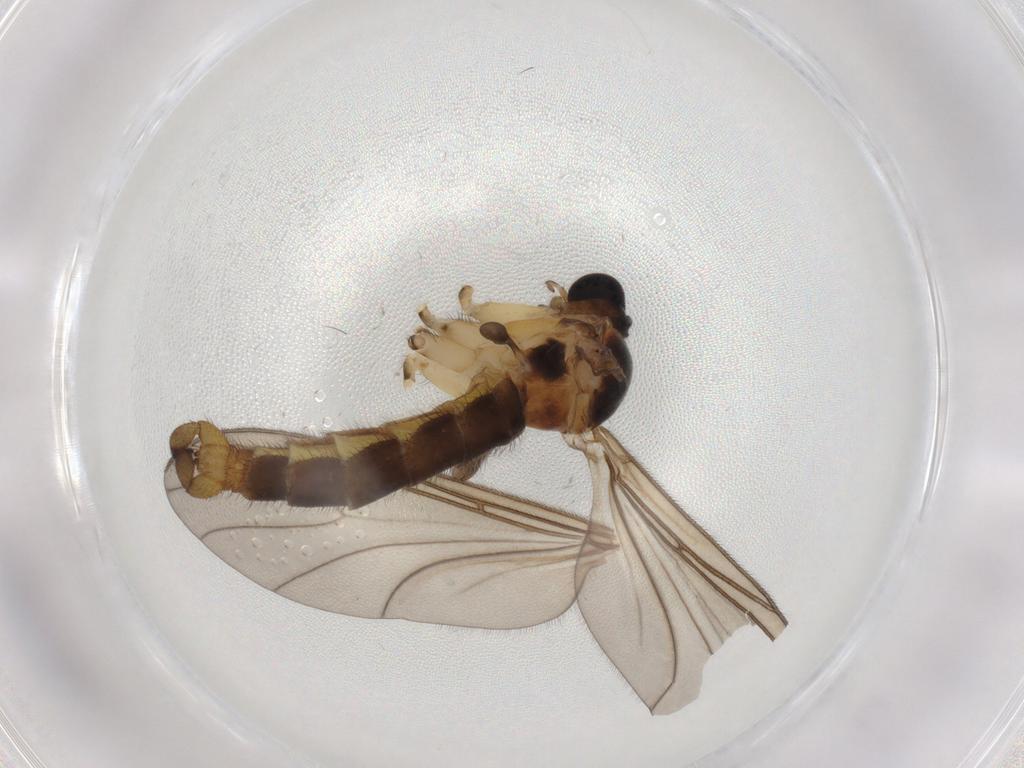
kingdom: Animalia
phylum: Arthropoda
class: Insecta
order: Diptera
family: Sciaridae
